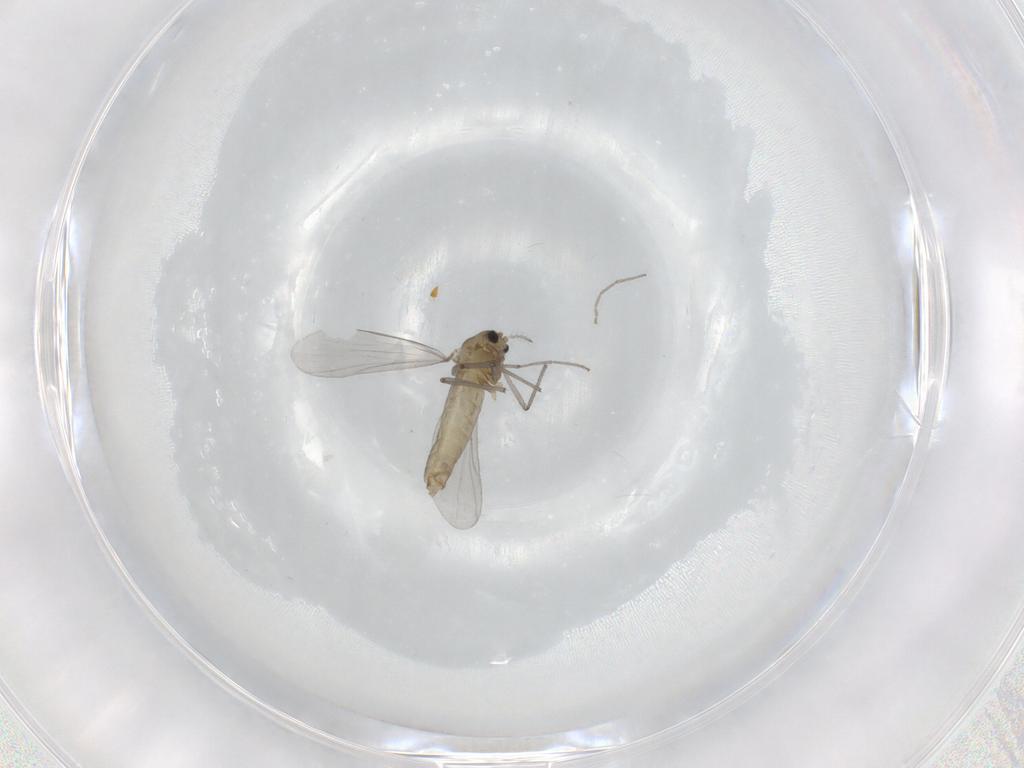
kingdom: Animalia
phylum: Arthropoda
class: Insecta
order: Diptera
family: Chironomidae
